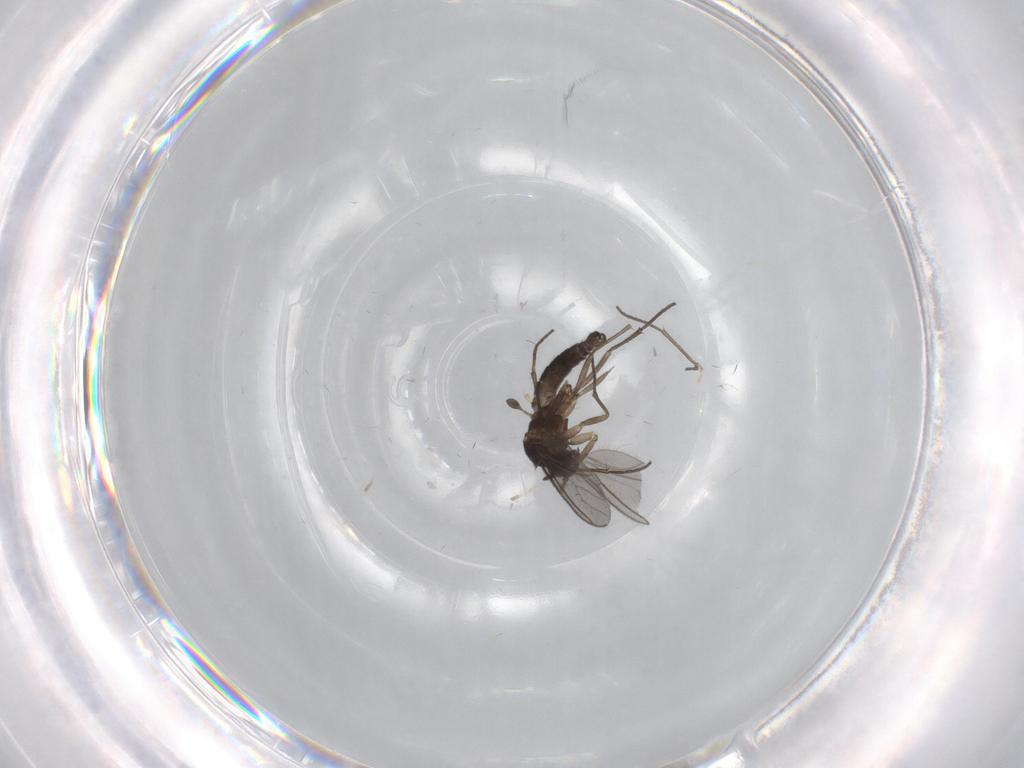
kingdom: Animalia
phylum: Arthropoda
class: Insecta
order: Diptera
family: Sciaridae
